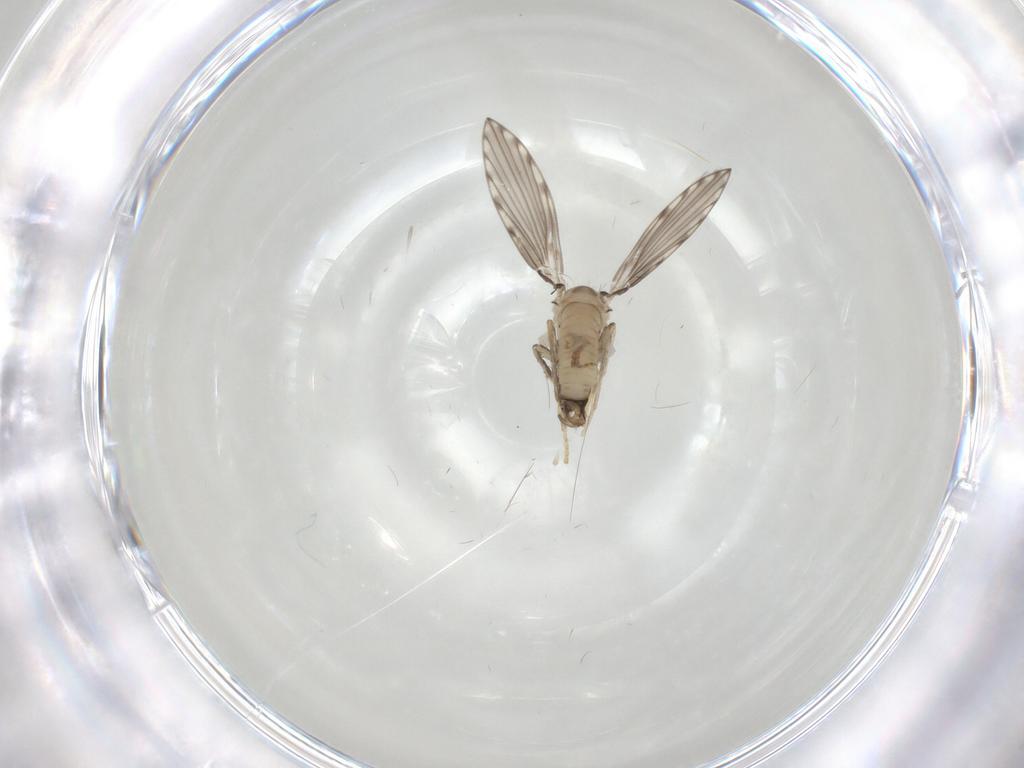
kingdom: Animalia
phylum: Arthropoda
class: Insecta
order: Diptera
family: Psychodidae
